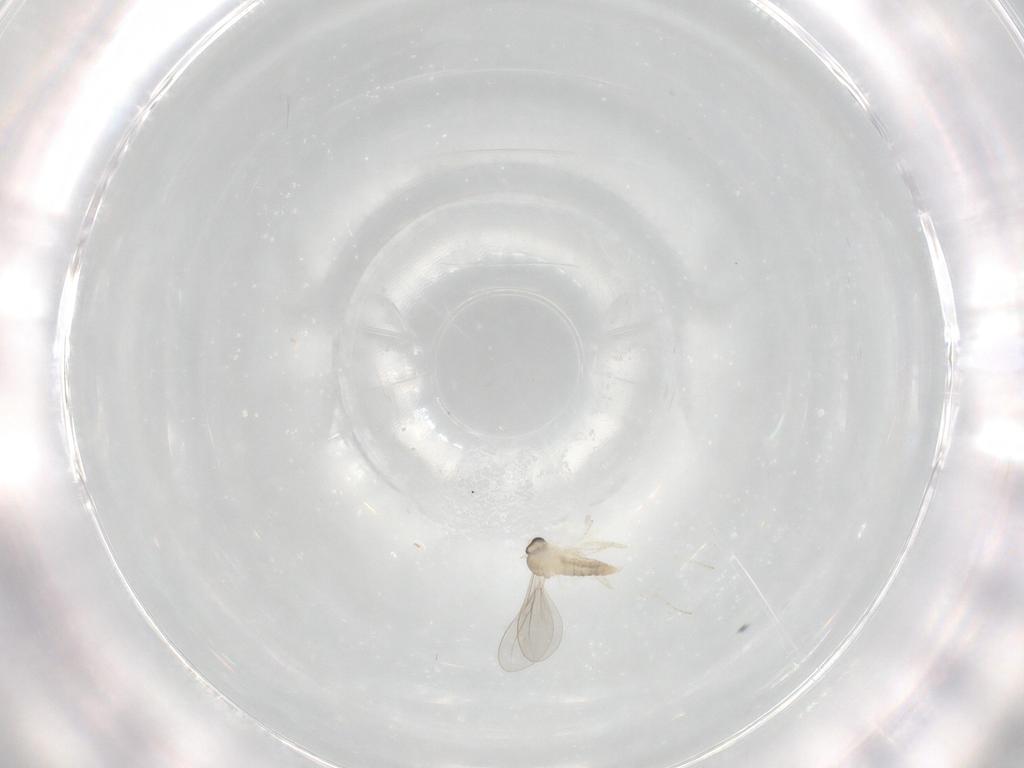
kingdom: Animalia
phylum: Arthropoda
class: Insecta
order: Diptera
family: Cecidomyiidae
